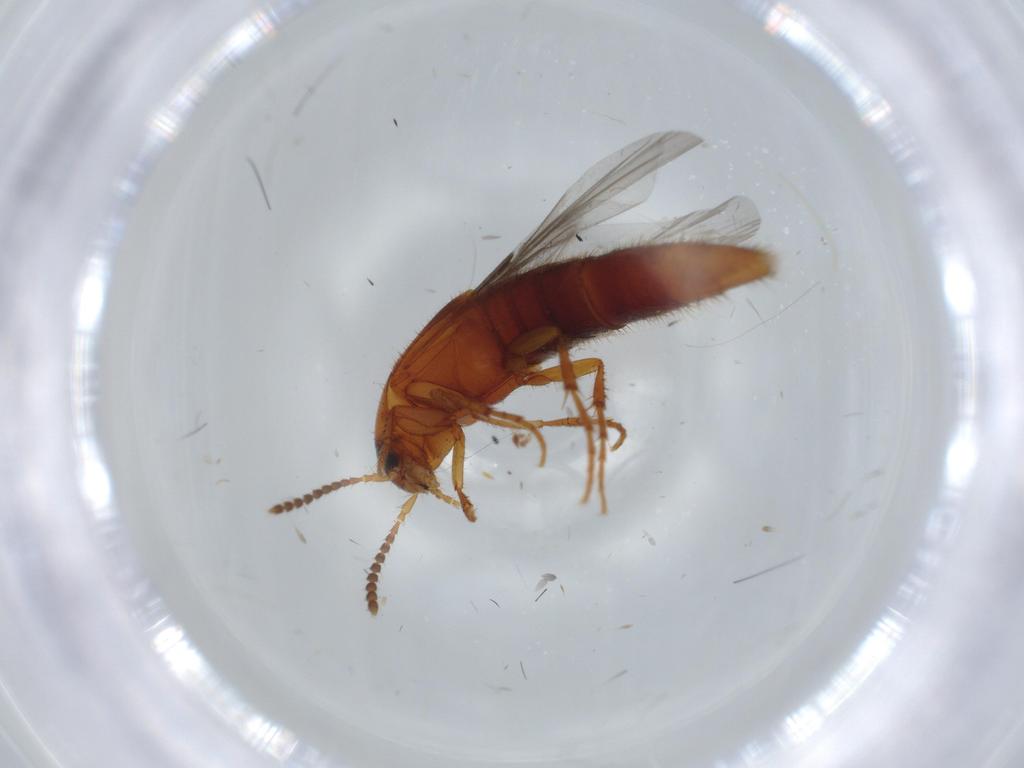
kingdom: Animalia
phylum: Arthropoda
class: Insecta
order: Coleoptera
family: Staphylinidae
